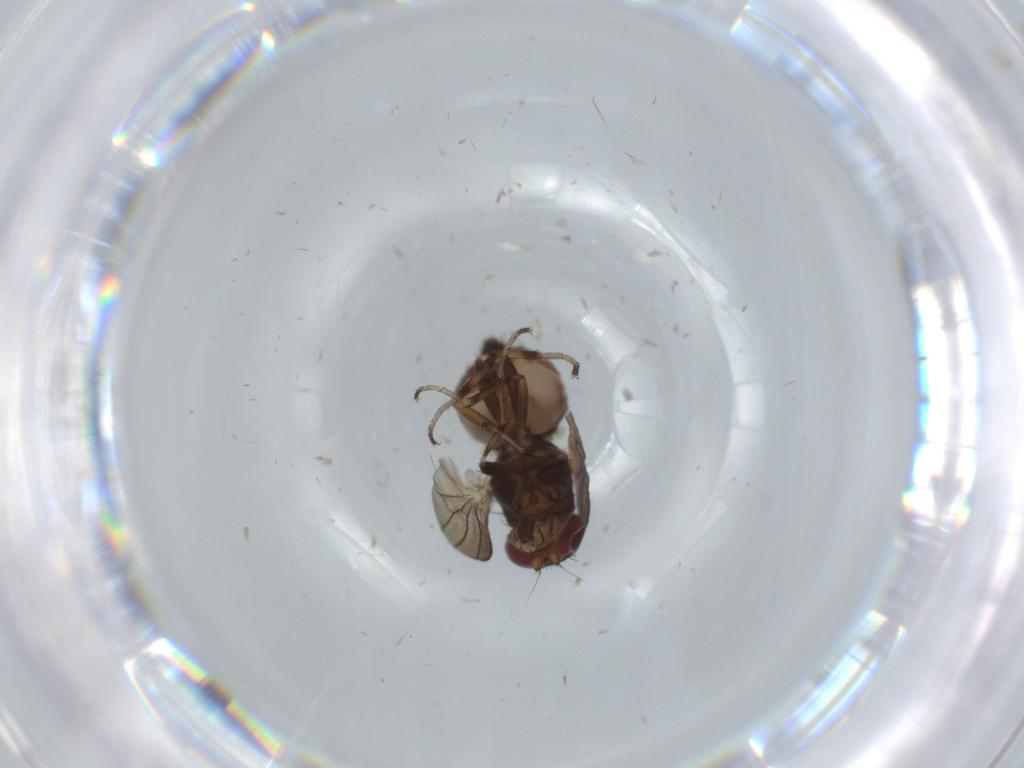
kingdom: Animalia
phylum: Arthropoda
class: Insecta
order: Diptera
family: Heleomyzidae
